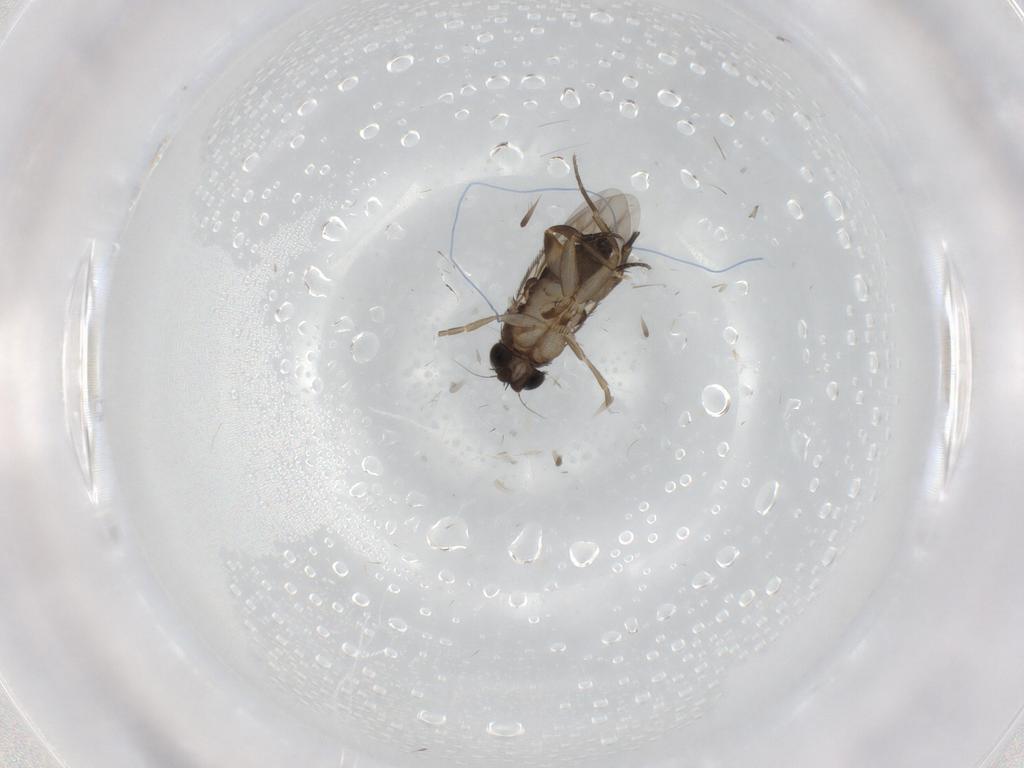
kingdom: Animalia
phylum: Arthropoda
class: Insecta
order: Diptera
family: Phoridae
